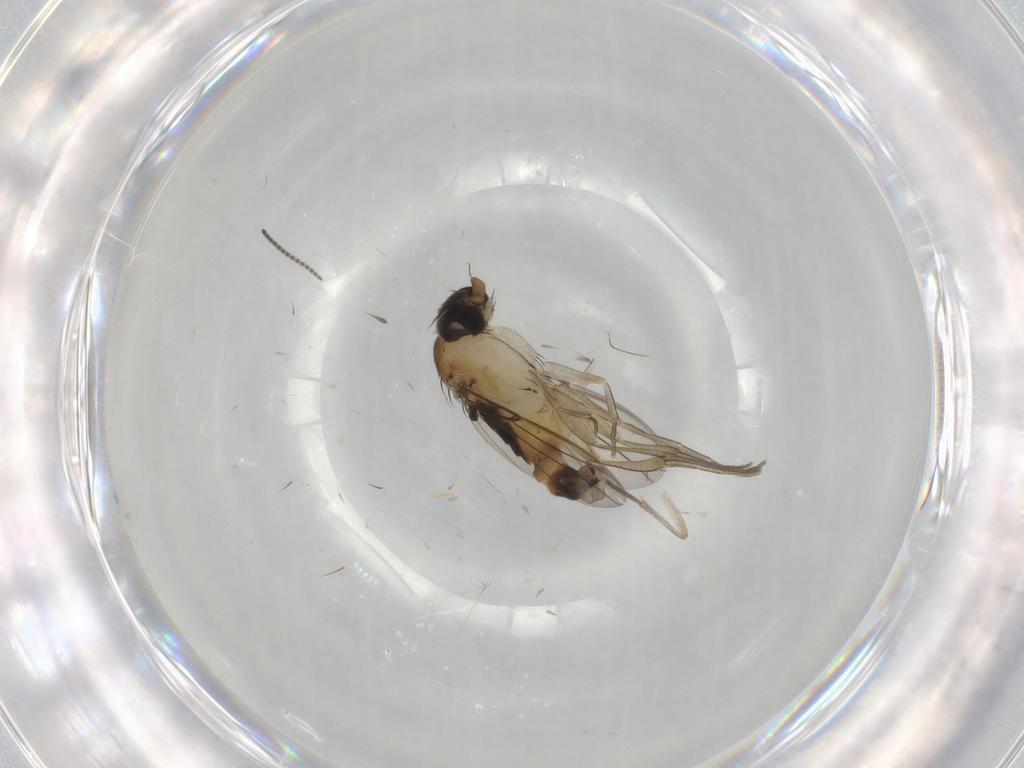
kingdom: Animalia
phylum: Arthropoda
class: Insecta
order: Diptera
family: Phoridae
